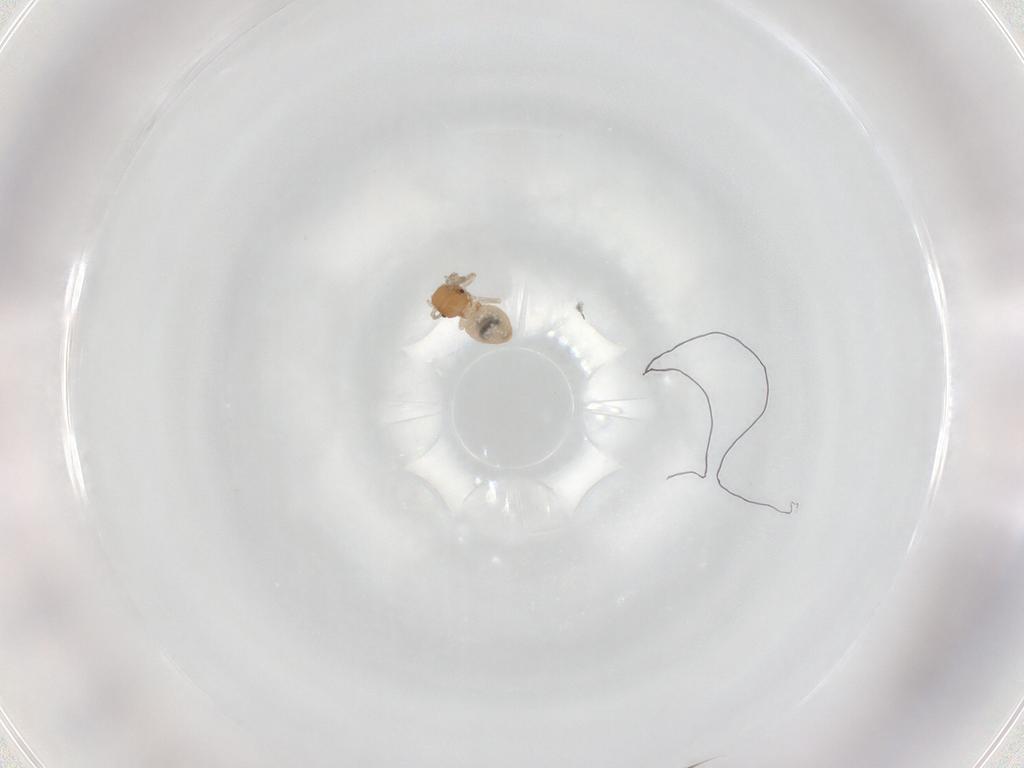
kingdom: Animalia
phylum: Arthropoda
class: Insecta
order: Psocodea
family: Caeciliusidae
